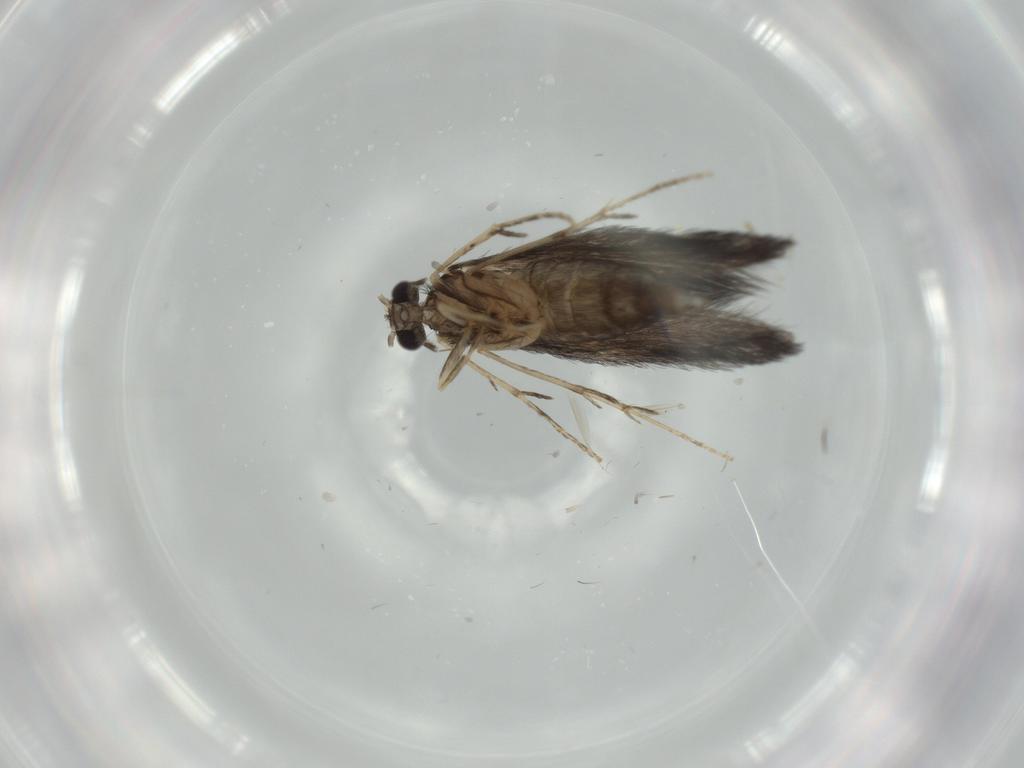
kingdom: Animalia
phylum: Arthropoda
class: Insecta
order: Trichoptera
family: Hydroptilidae
